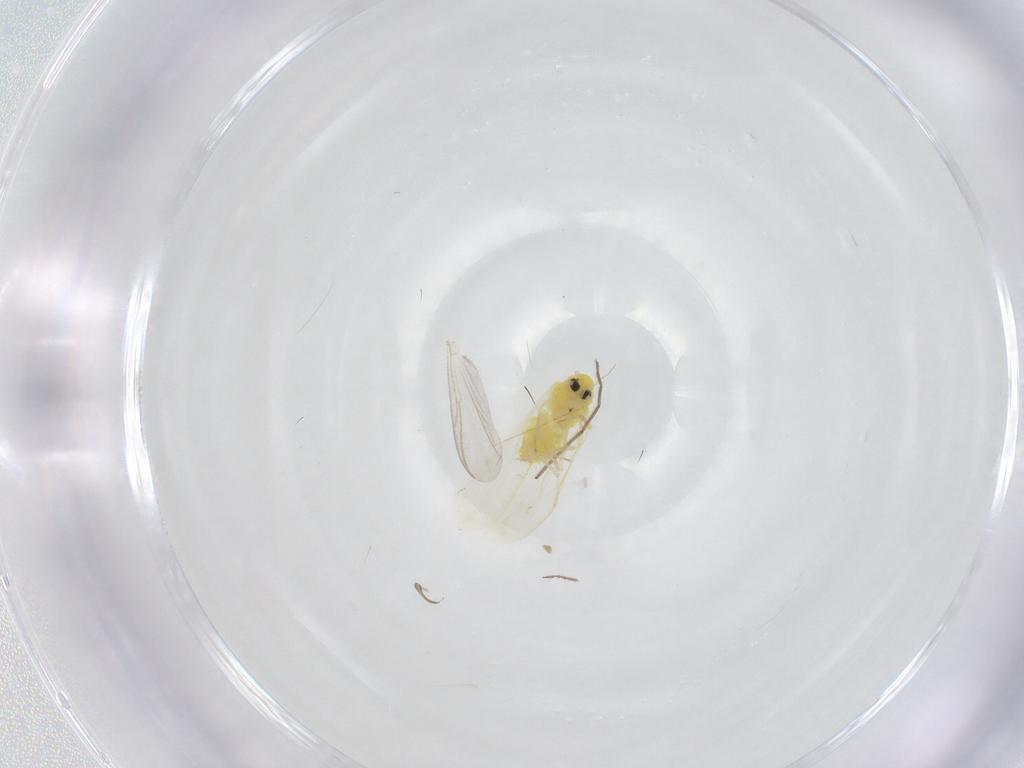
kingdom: Animalia
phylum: Arthropoda
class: Insecta
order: Hemiptera
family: Aleyrodidae
